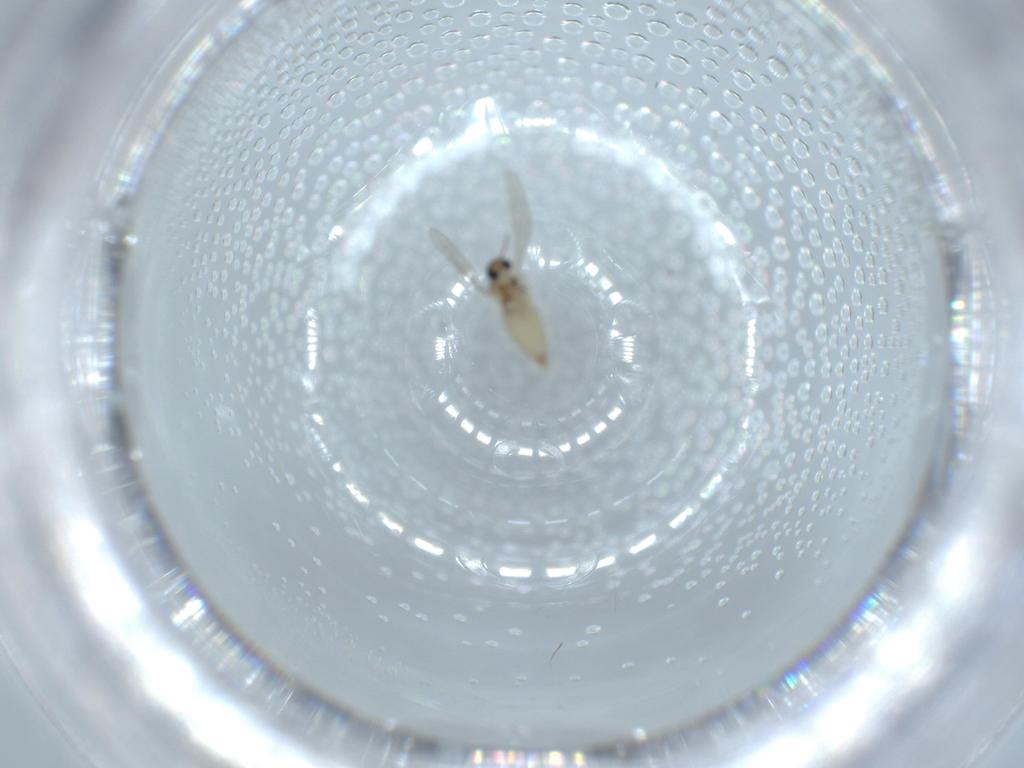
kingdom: Animalia
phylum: Arthropoda
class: Insecta
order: Diptera
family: Syrphidae
